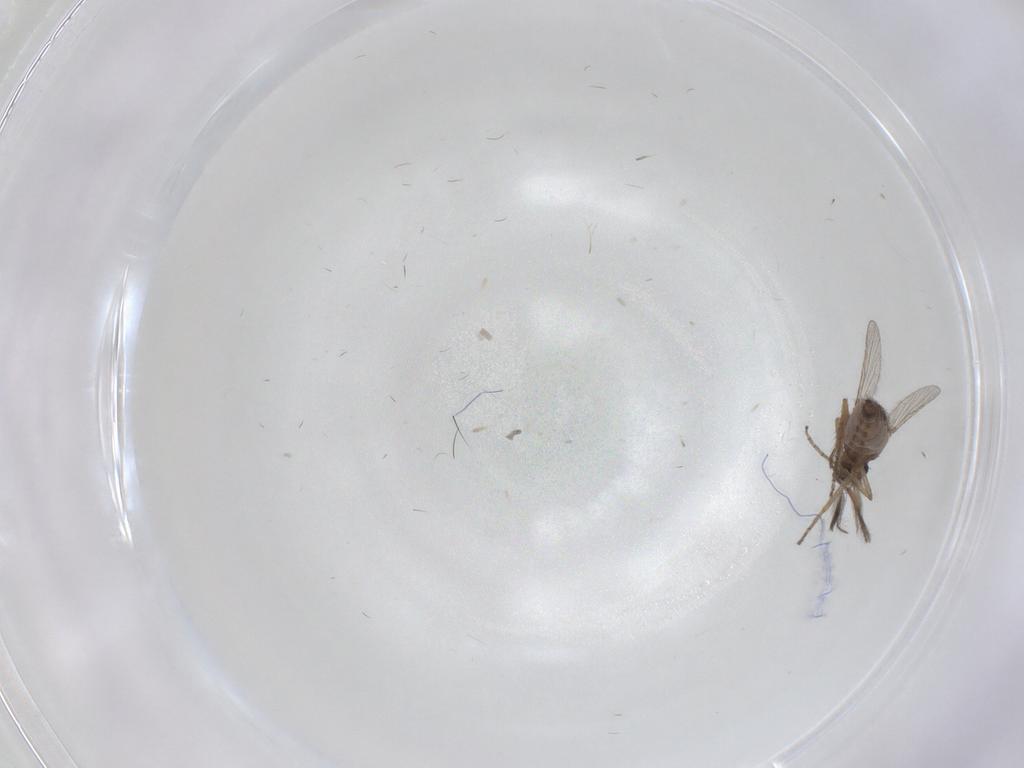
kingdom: Animalia
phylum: Arthropoda
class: Insecta
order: Diptera
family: Ceratopogonidae
